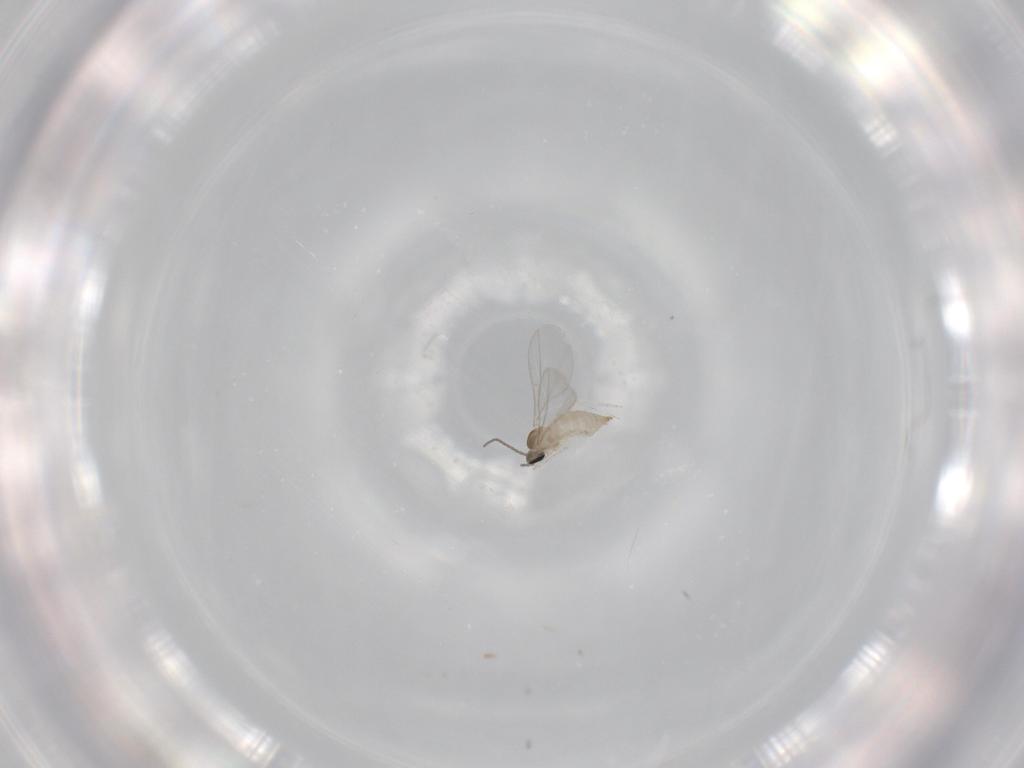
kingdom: Animalia
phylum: Arthropoda
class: Insecta
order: Diptera
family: Cecidomyiidae
